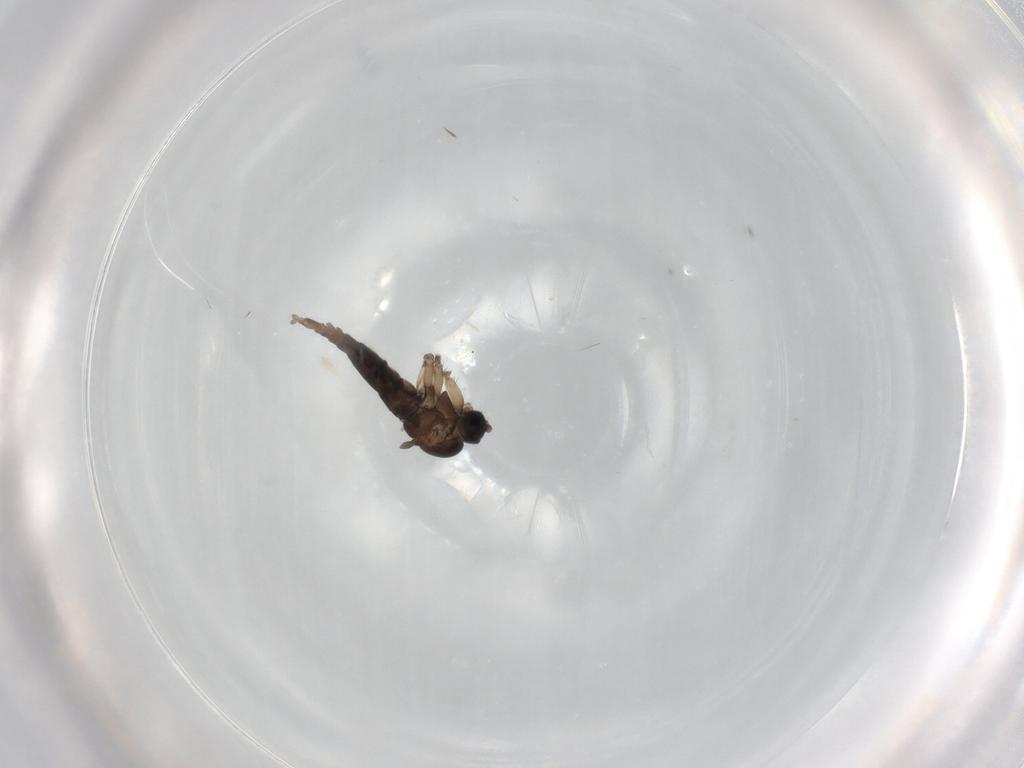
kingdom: Animalia
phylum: Arthropoda
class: Insecta
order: Diptera
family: Sciaridae
